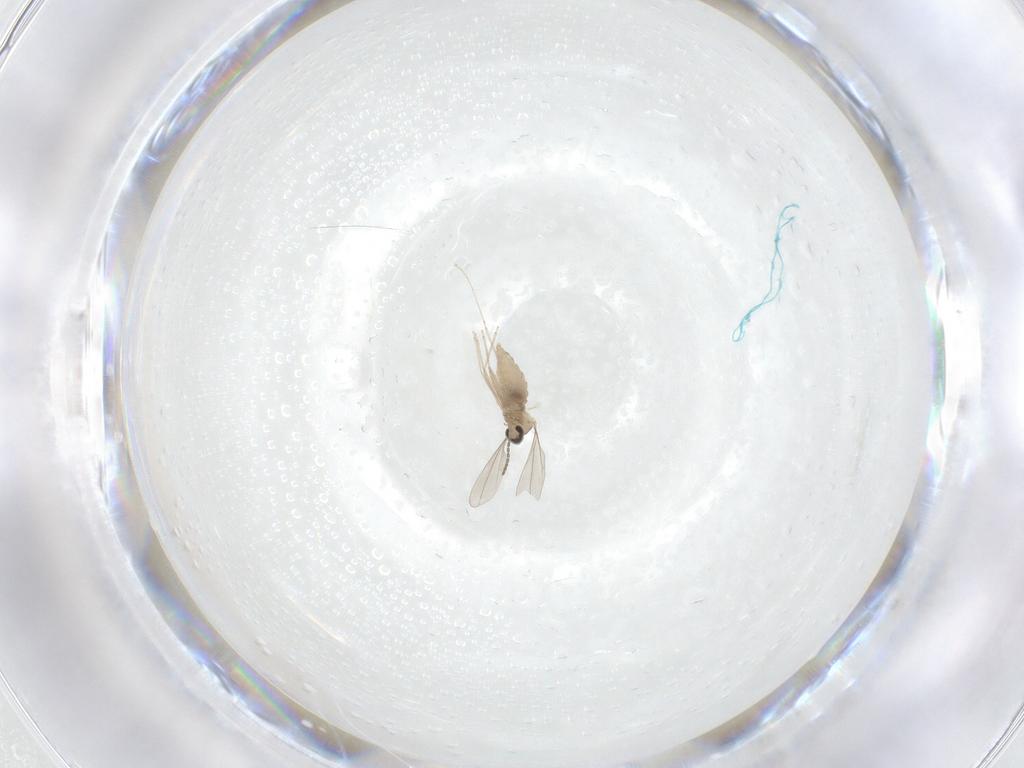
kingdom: Animalia
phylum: Arthropoda
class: Insecta
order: Diptera
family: Cecidomyiidae
